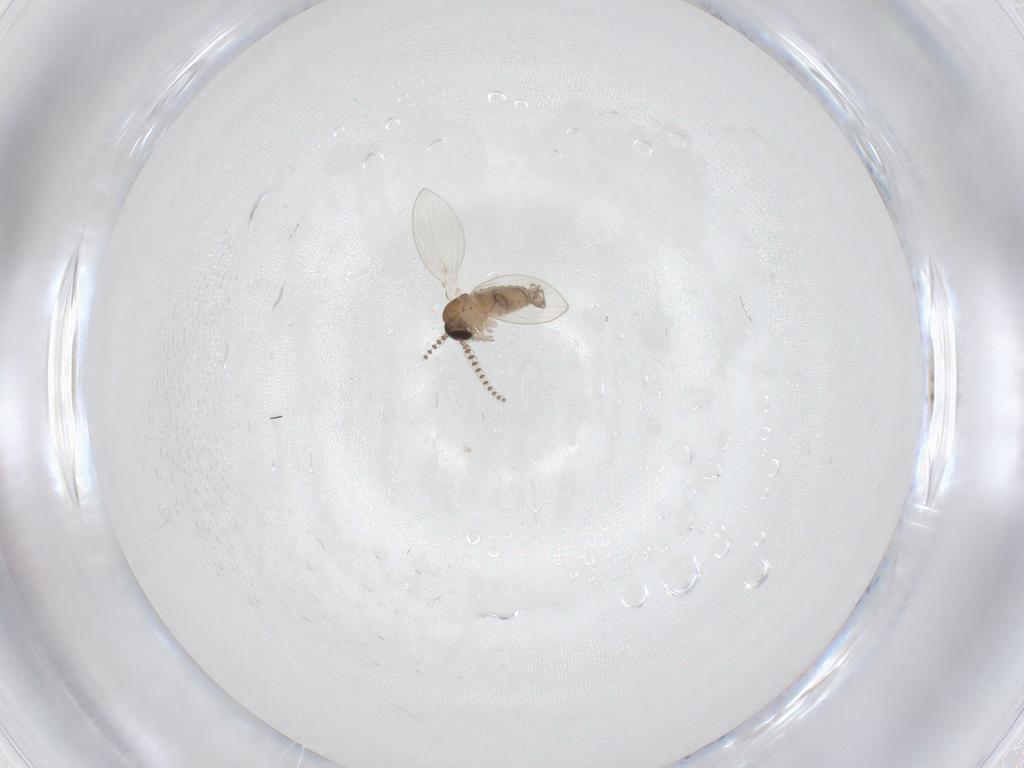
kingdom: Animalia
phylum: Arthropoda
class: Insecta
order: Diptera
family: Psychodidae
